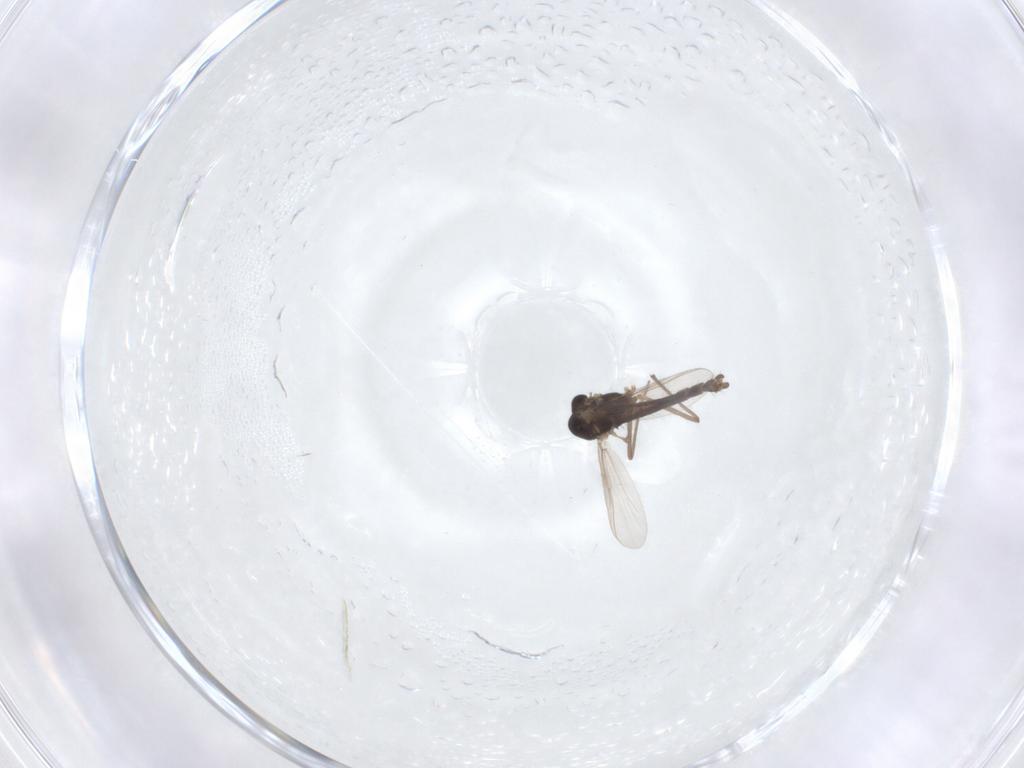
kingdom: Animalia
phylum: Arthropoda
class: Insecta
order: Diptera
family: Chironomidae
